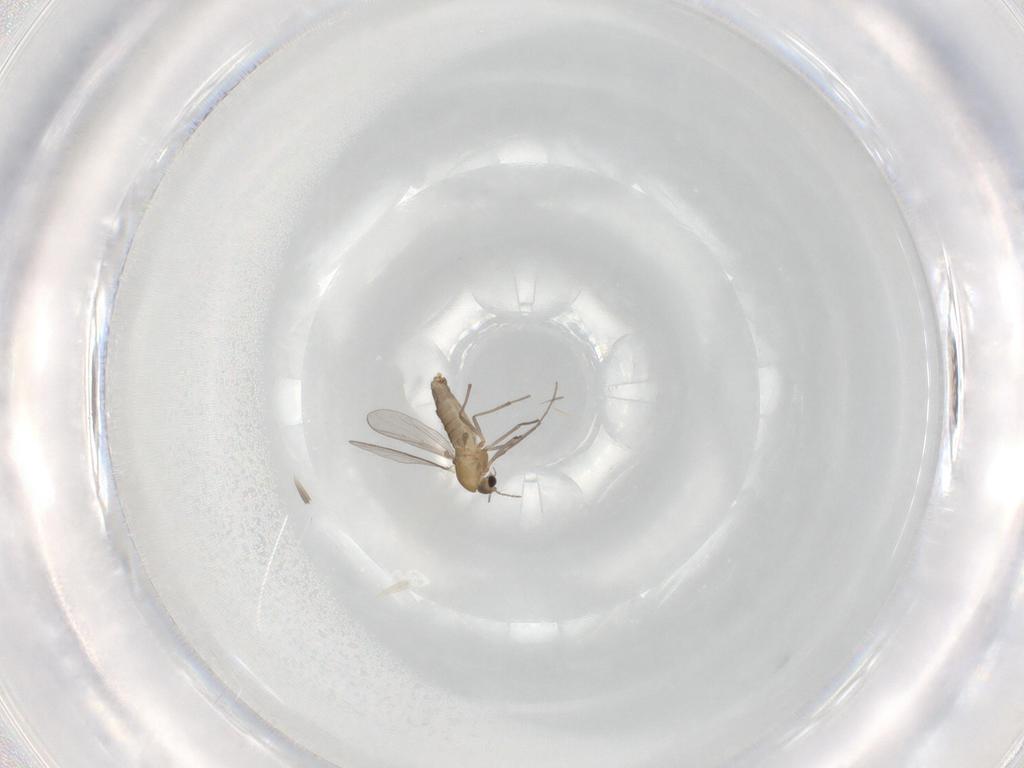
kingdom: Animalia
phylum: Arthropoda
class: Insecta
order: Diptera
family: Chironomidae
